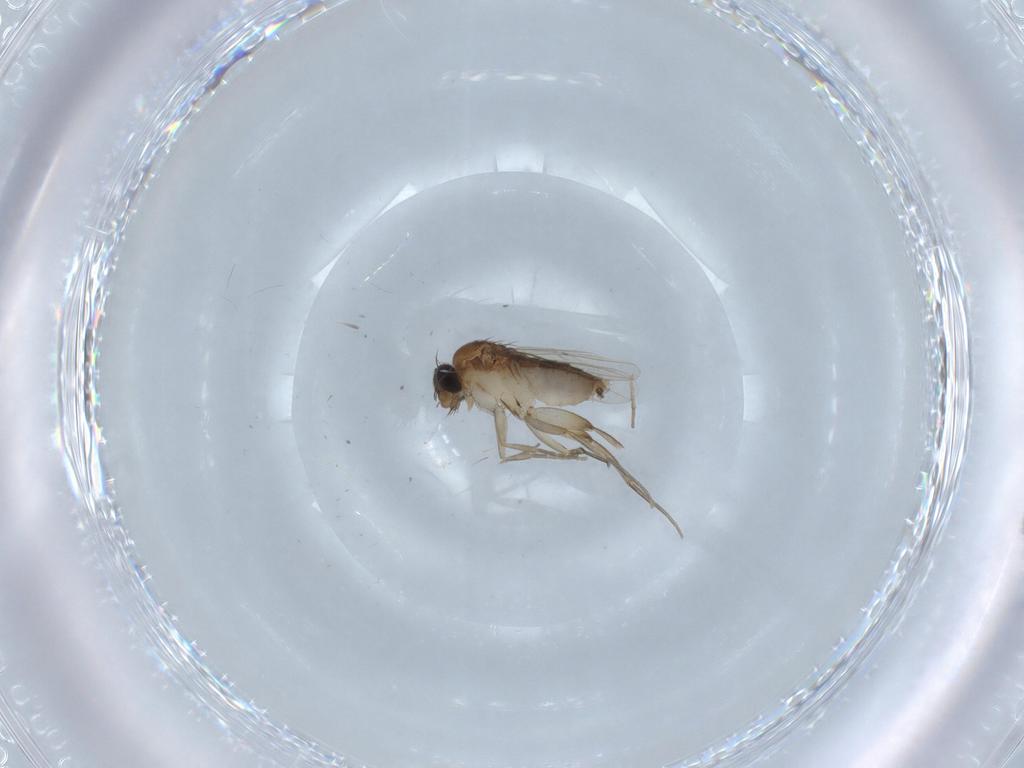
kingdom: Animalia
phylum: Arthropoda
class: Insecta
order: Diptera
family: Phoridae
